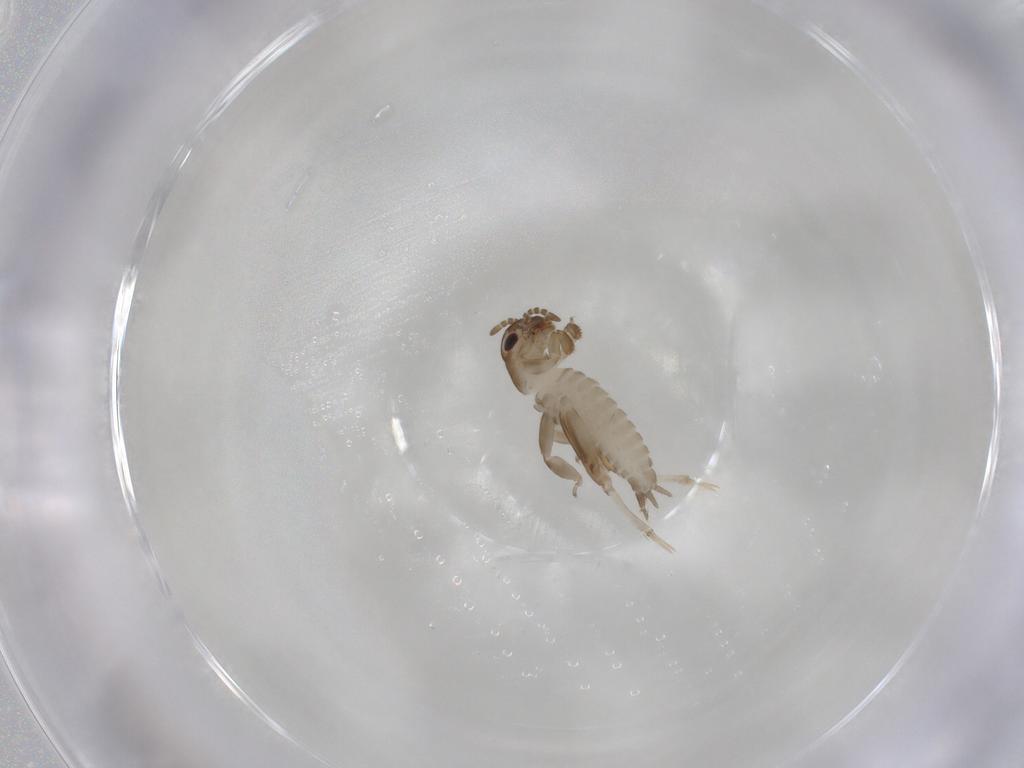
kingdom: Animalia
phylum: Arthropoda
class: Insecta
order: Orthoptera
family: Ripipterygidae
